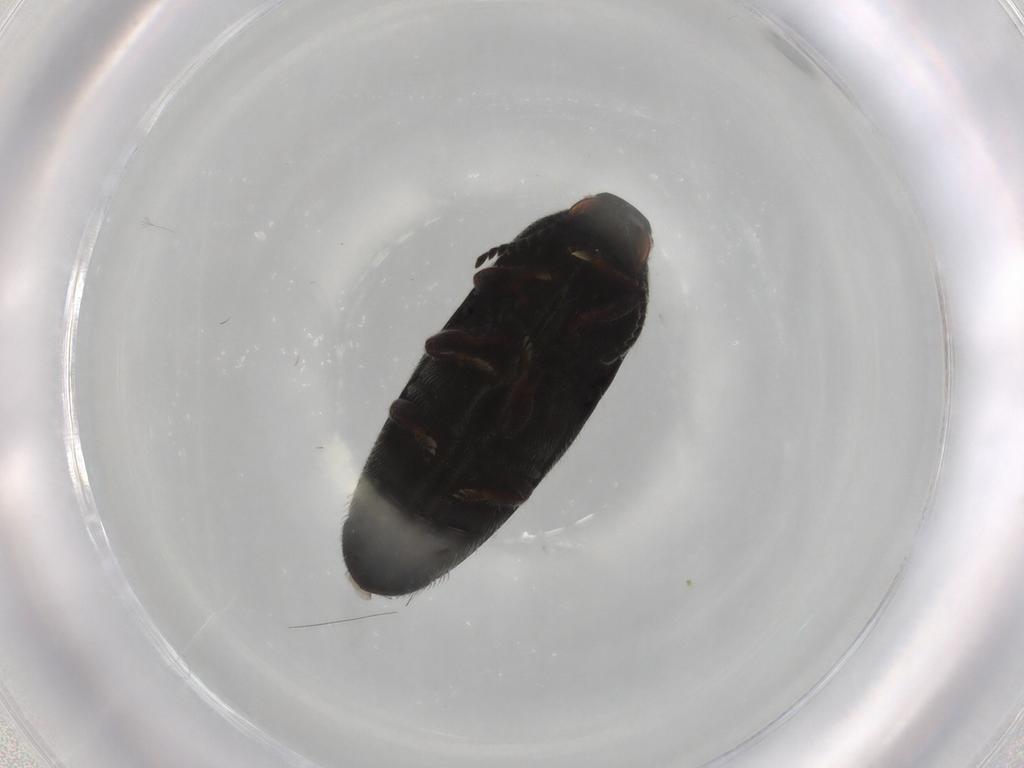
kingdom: Animalia
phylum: Arthropoda
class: Insecta
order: Coleoptera
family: Elateridae
